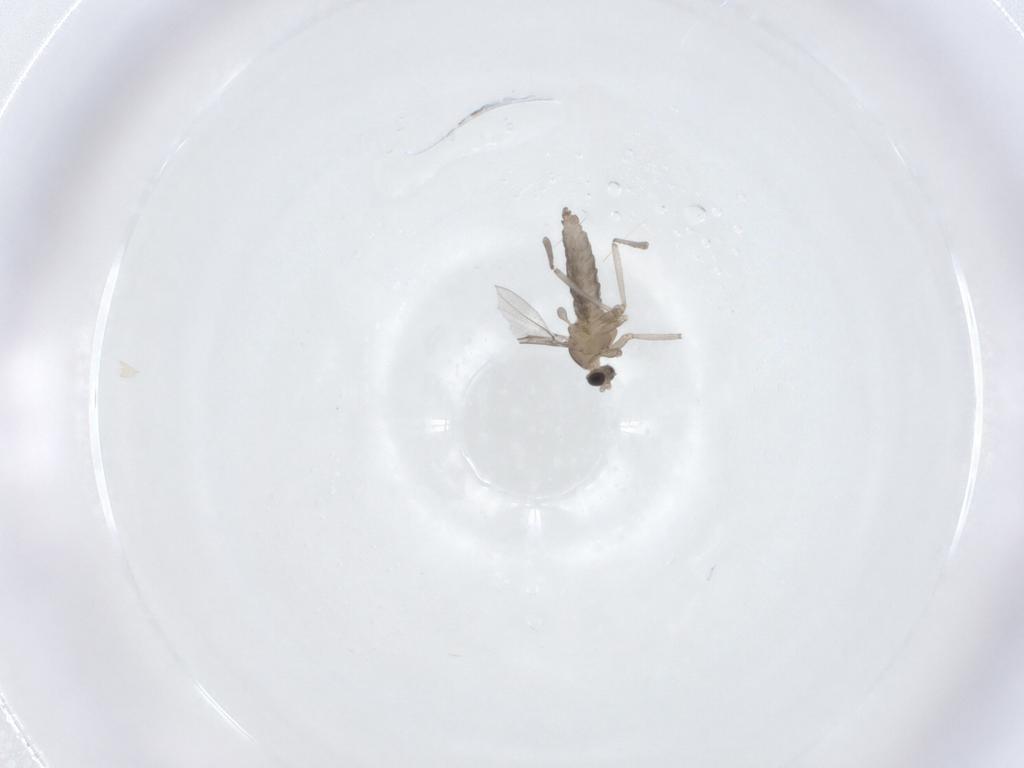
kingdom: Animalia
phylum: Arthropoda
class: Insecta
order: Diptera
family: Cecidomyiidae
